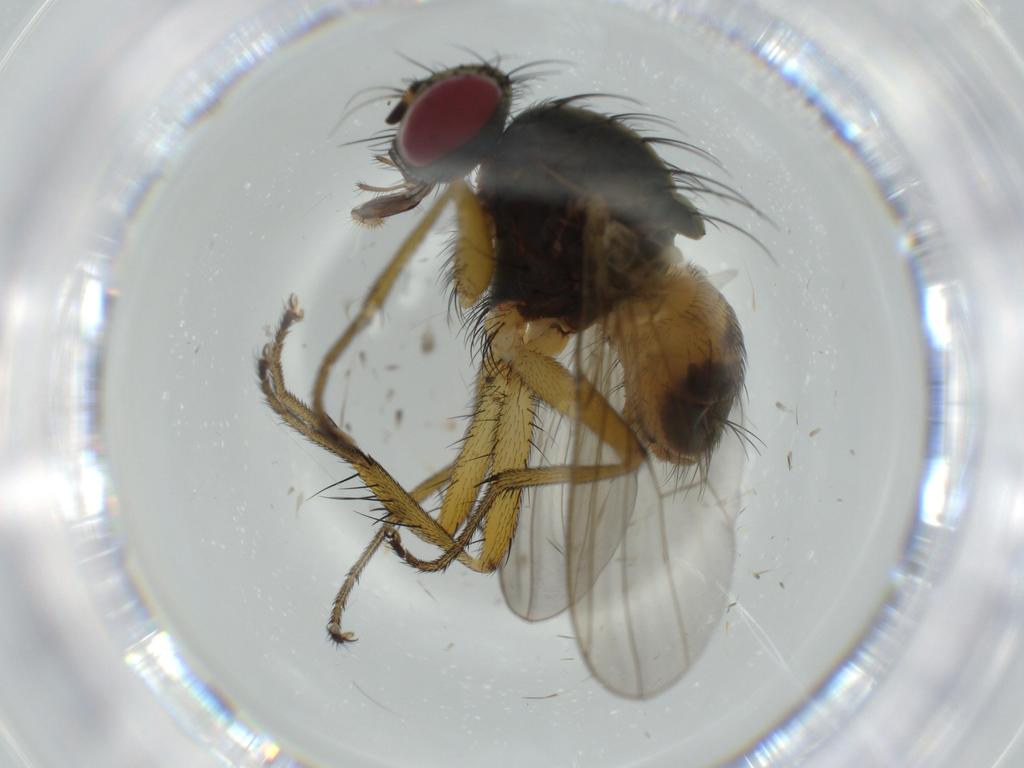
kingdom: Animalia
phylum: Arthropoda
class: Insecta
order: Diptera
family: Muscidae
